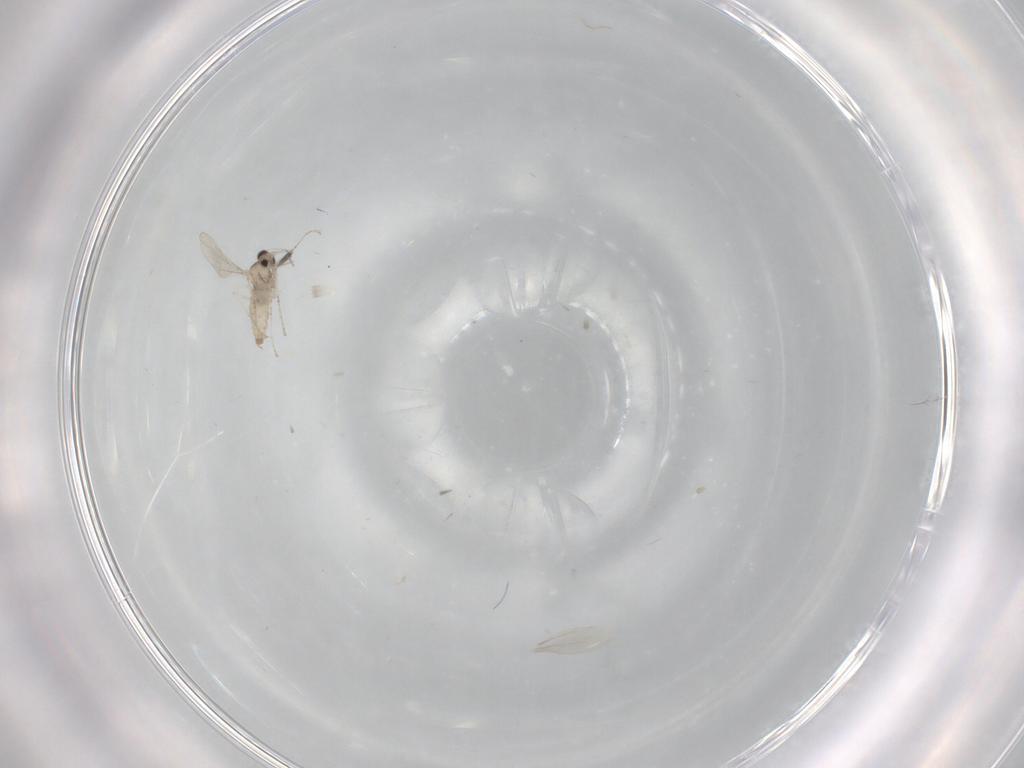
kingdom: Animalia
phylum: Arthropoda
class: Insecta
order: Diptera
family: Cecidomyiidae
